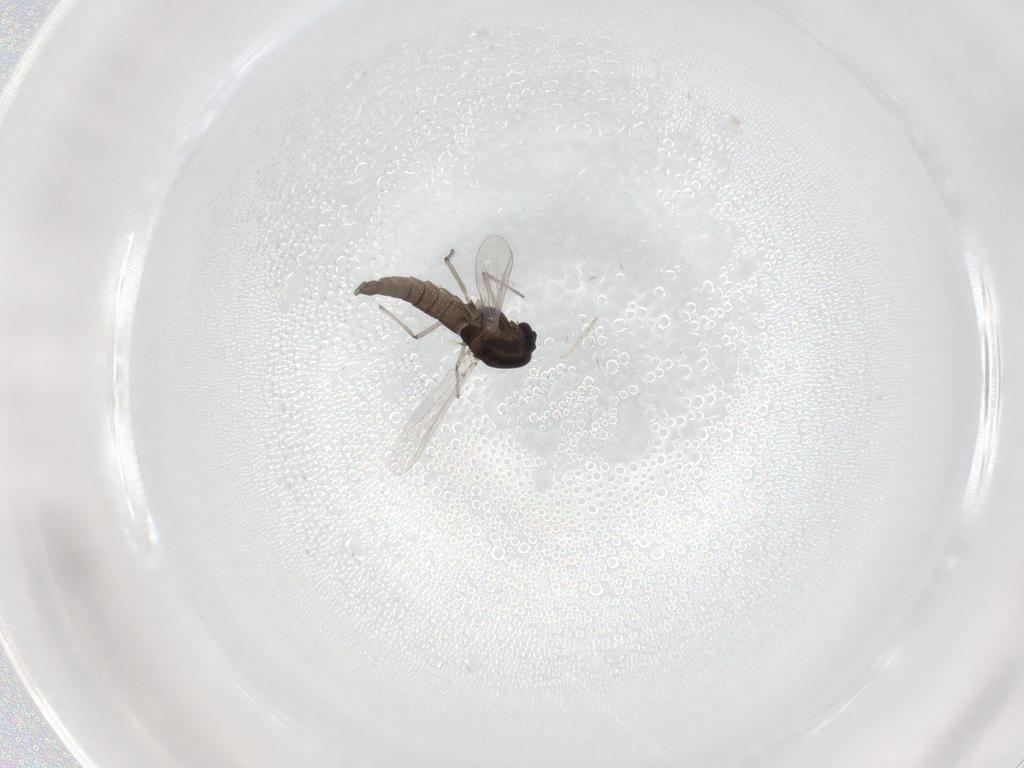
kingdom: Animalia
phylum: Arthropoda
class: Insecta
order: Diptera
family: Chironomidae
